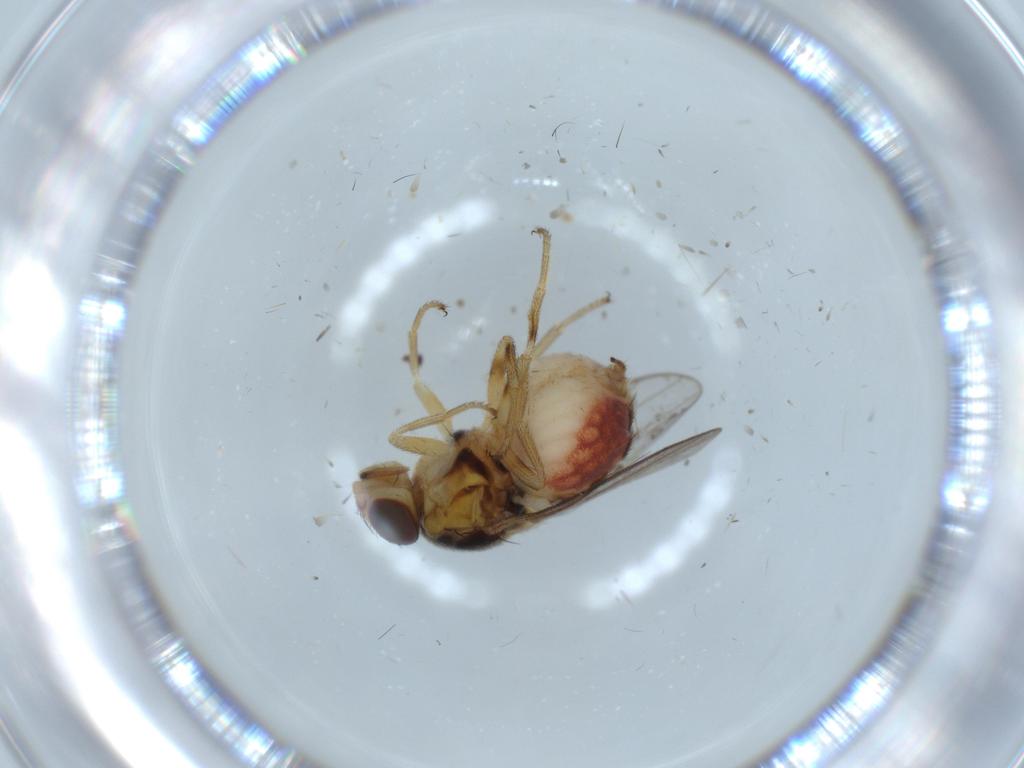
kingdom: Animalia
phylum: Arthropoda
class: Insecta
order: Diptera
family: Chloropidae
